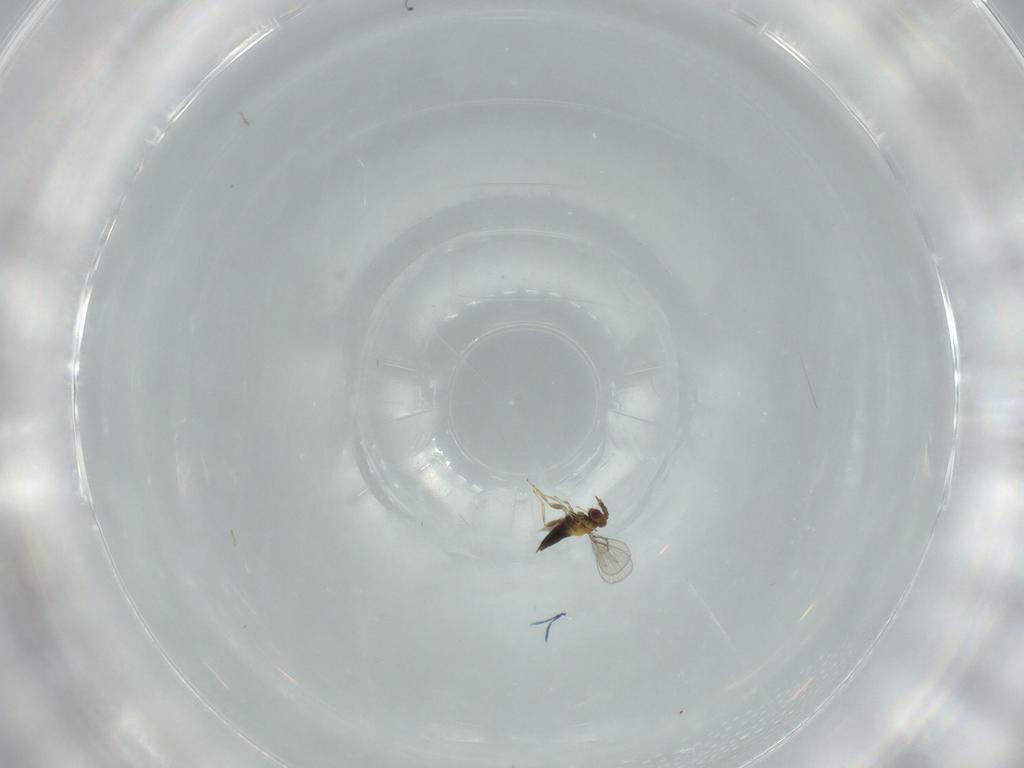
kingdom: Animalia
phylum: Arthropoda
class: Insecta
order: Hymenoptera
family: Trichogrammatidae
